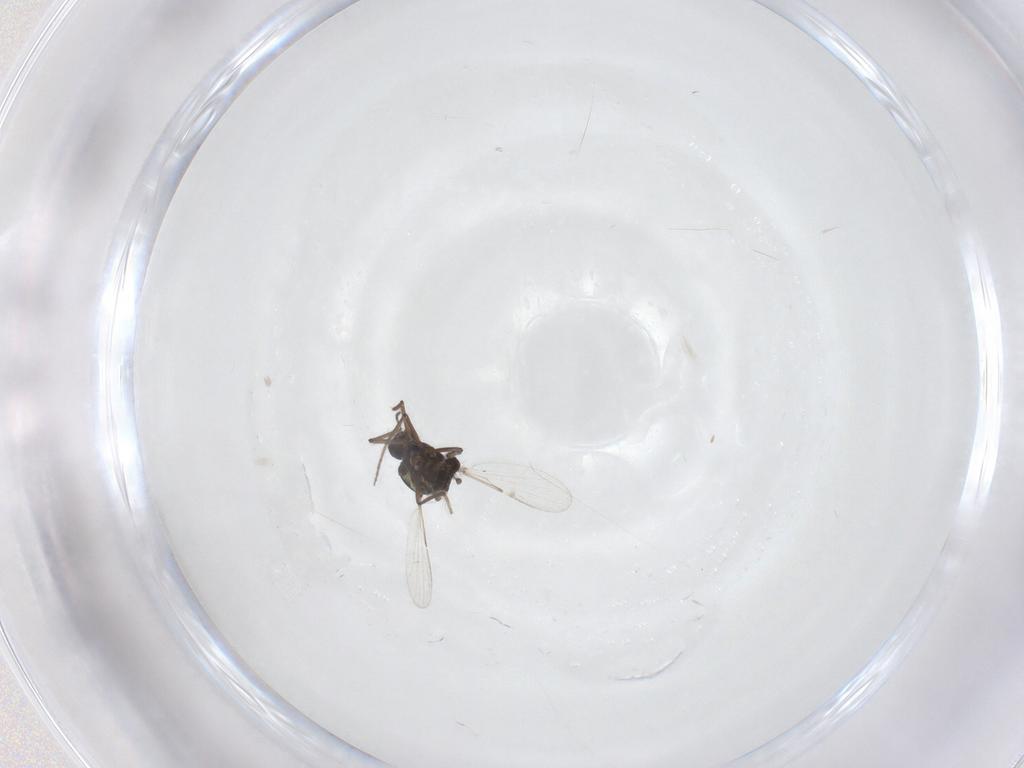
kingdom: Animalia
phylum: Arthropoda
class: Insecta
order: Diptera
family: Ceratopogonidae
